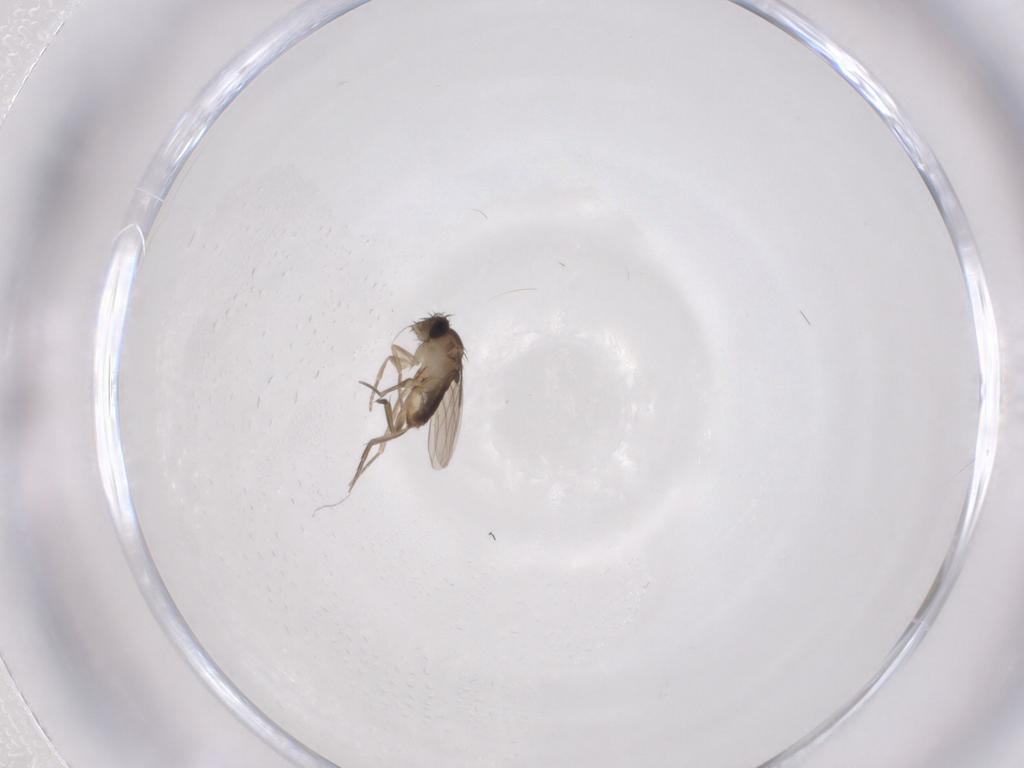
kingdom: Animalia
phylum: Arthropoda
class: Insecta
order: Diptera
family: Phoridae
